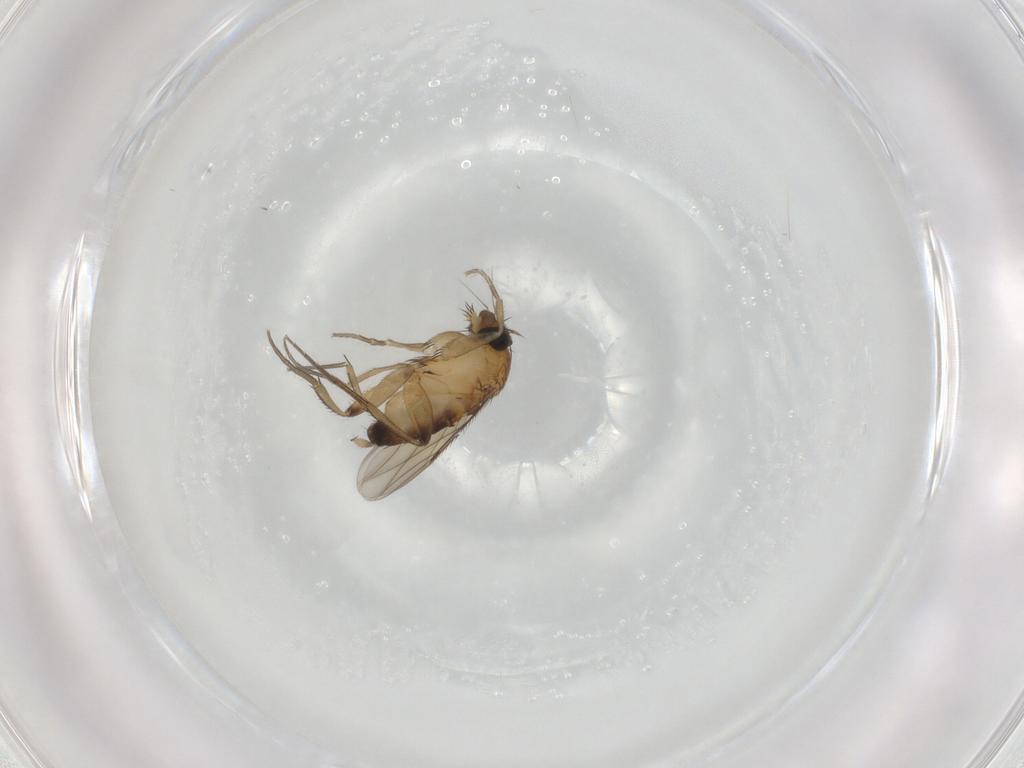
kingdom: Animalia
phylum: Arthropoda
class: Insecta
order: Diptera
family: Phoridae
